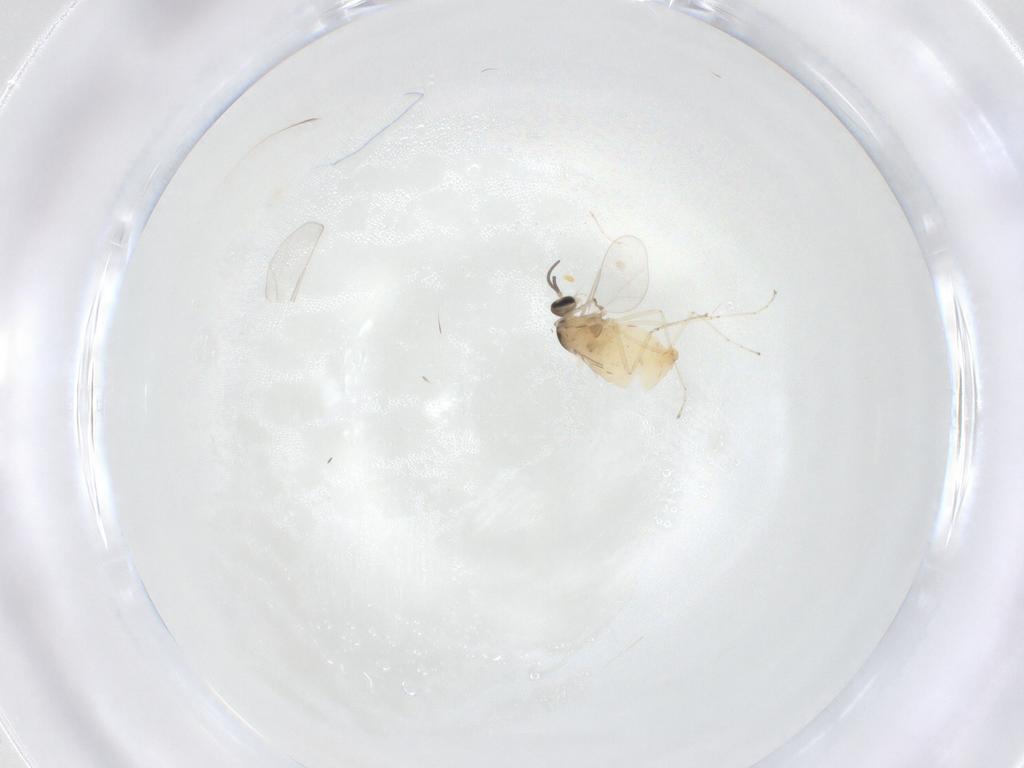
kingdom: Animalia
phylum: Arthropoda
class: Insecta
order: Diptera
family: Cecidomyiidae
